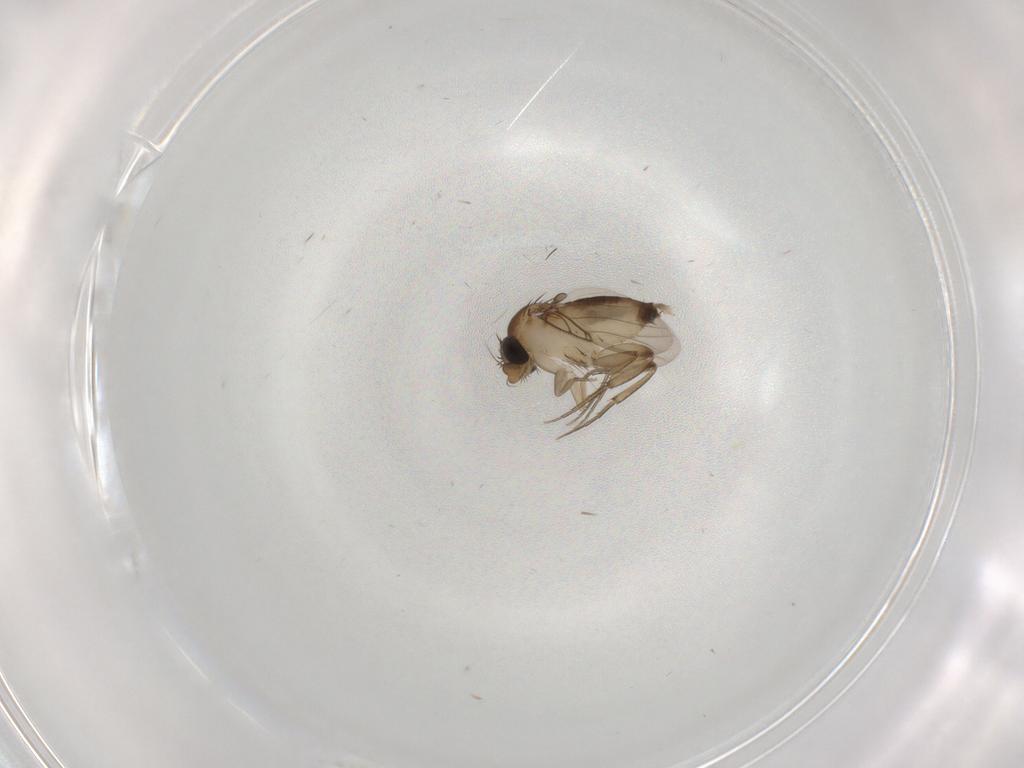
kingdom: Animalia
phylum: Arthropoda
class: Insecta
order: Diptera
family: Phoridae
